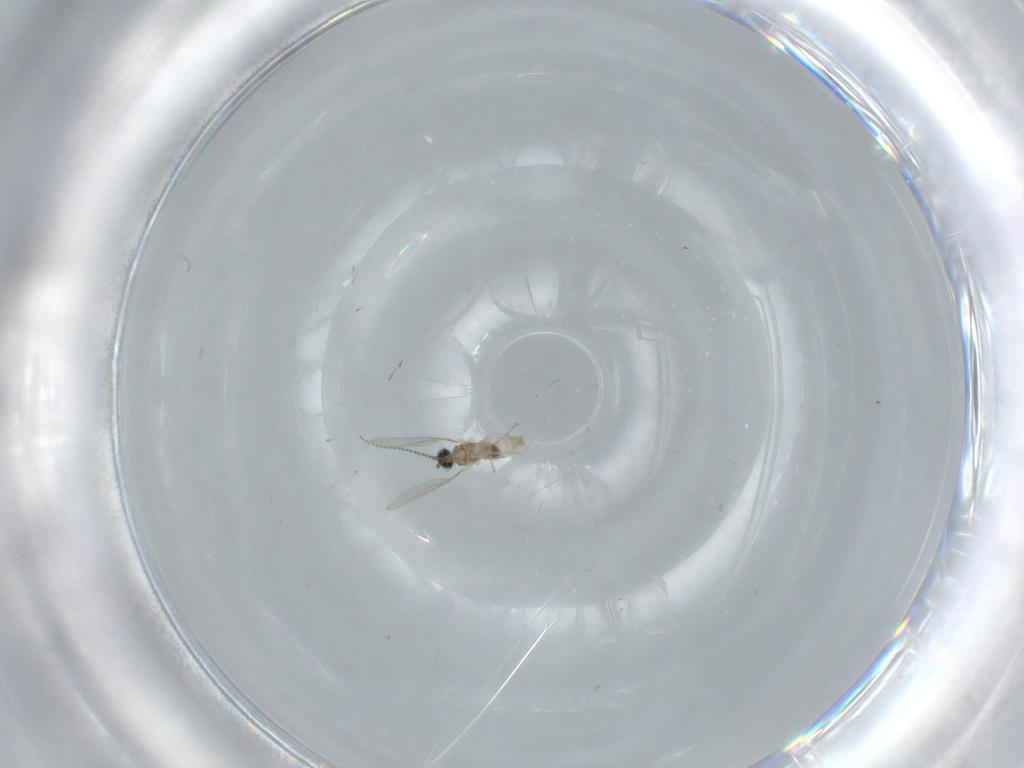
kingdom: Animalia
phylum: Arthropoda
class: Insecta
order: Diptera
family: Cecidomyiidae
